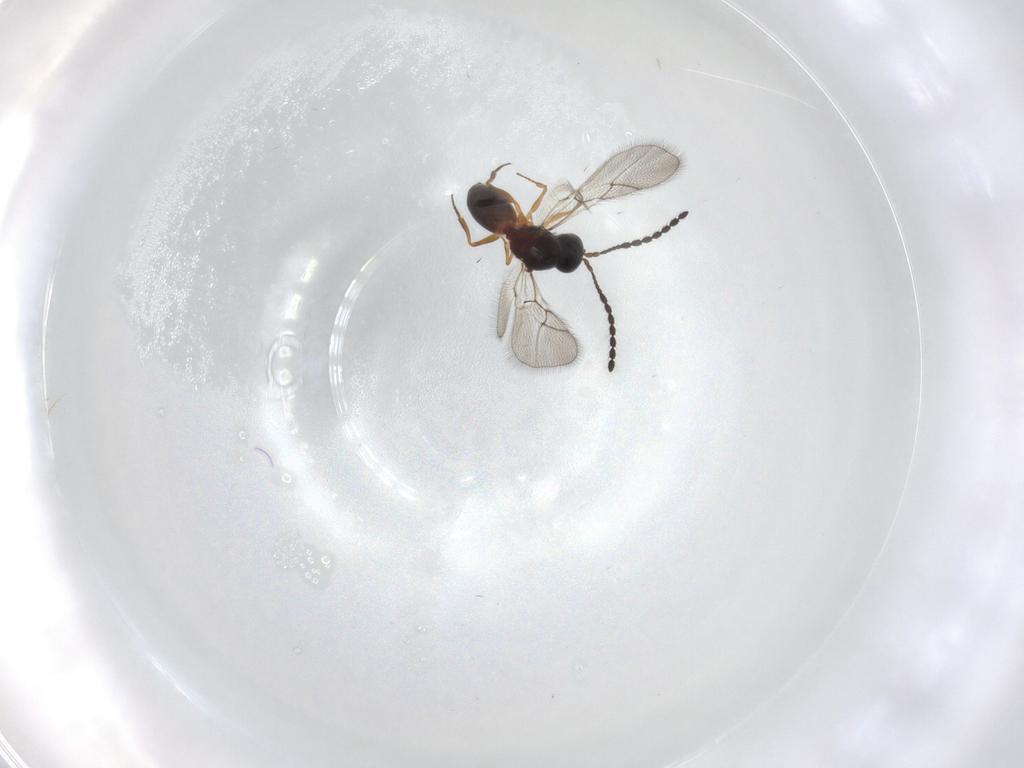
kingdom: Animalia
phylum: Arthropoda
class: Insecta
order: Hymenoptera
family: Figitidae
